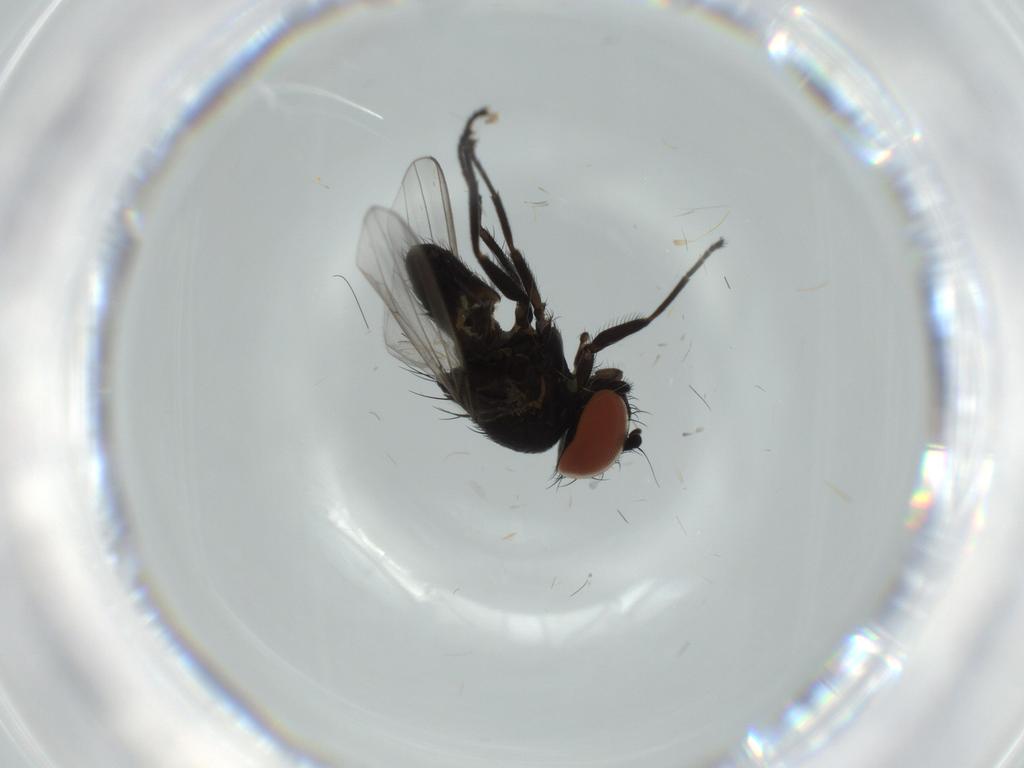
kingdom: Animalia
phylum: Arthropoda
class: Insecta
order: Diptera
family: Milichiidae
